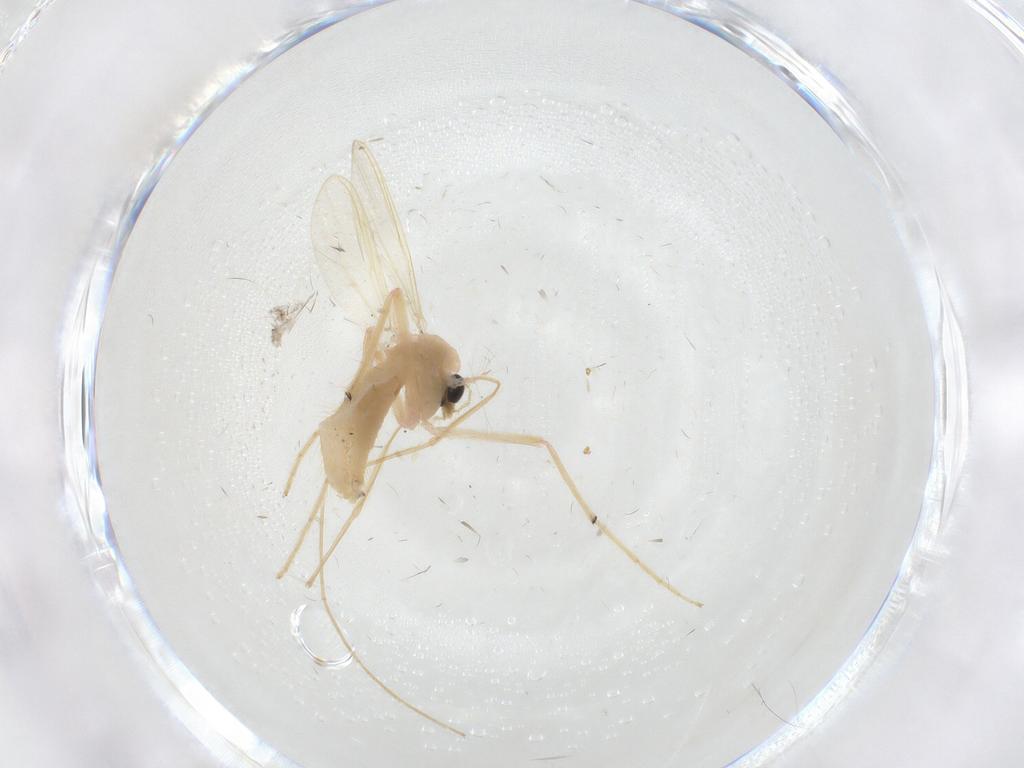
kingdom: Animalia
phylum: Arthropoda
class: Insecta
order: Diptera
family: Chironomidae
